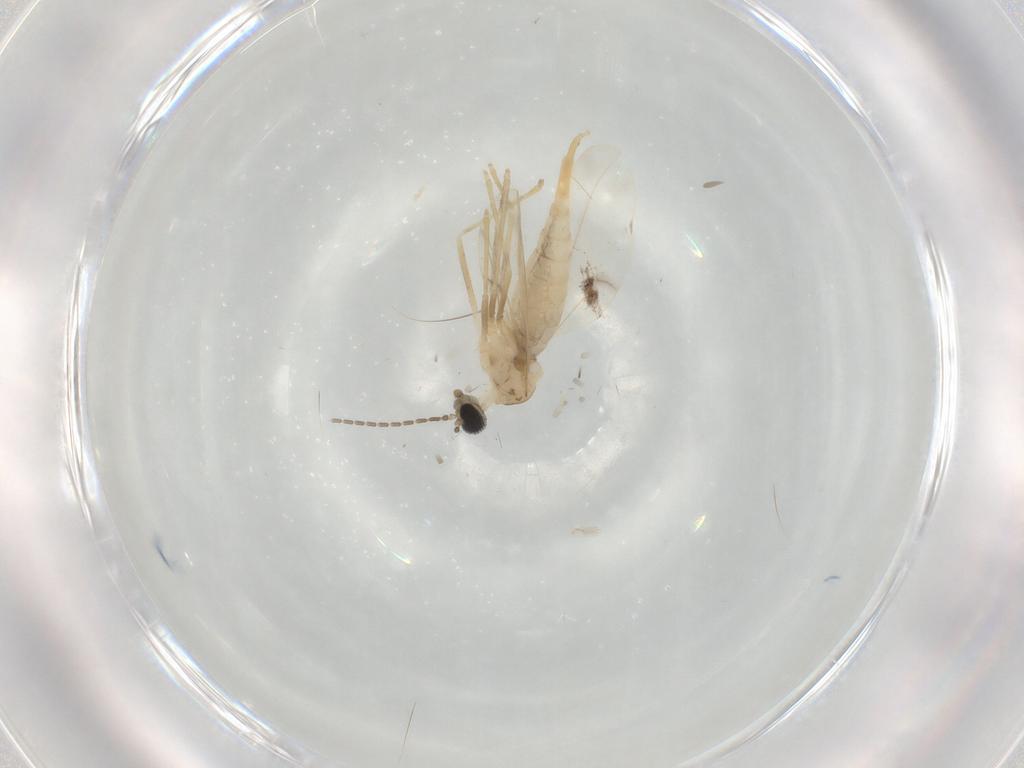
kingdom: Animalia
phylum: Arthropoda
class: Insecta
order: Diptera
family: Cecidomyiidae
